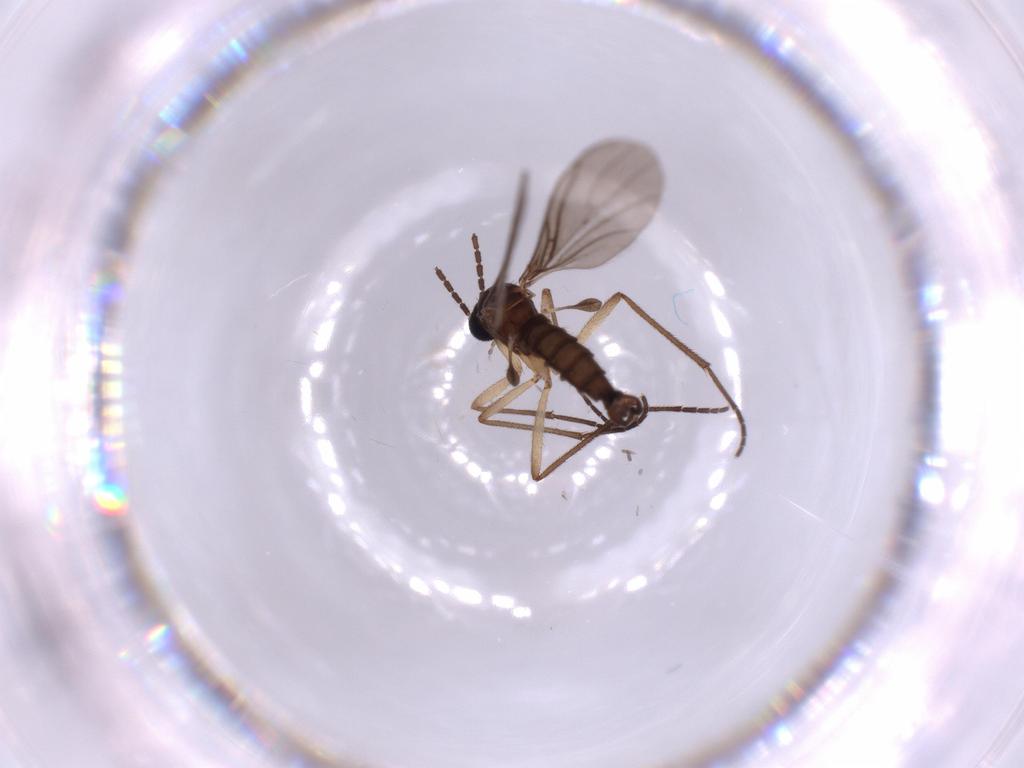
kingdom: Animalia
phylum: Arthropoda
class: Insecta
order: Diptera
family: Sciaridae
